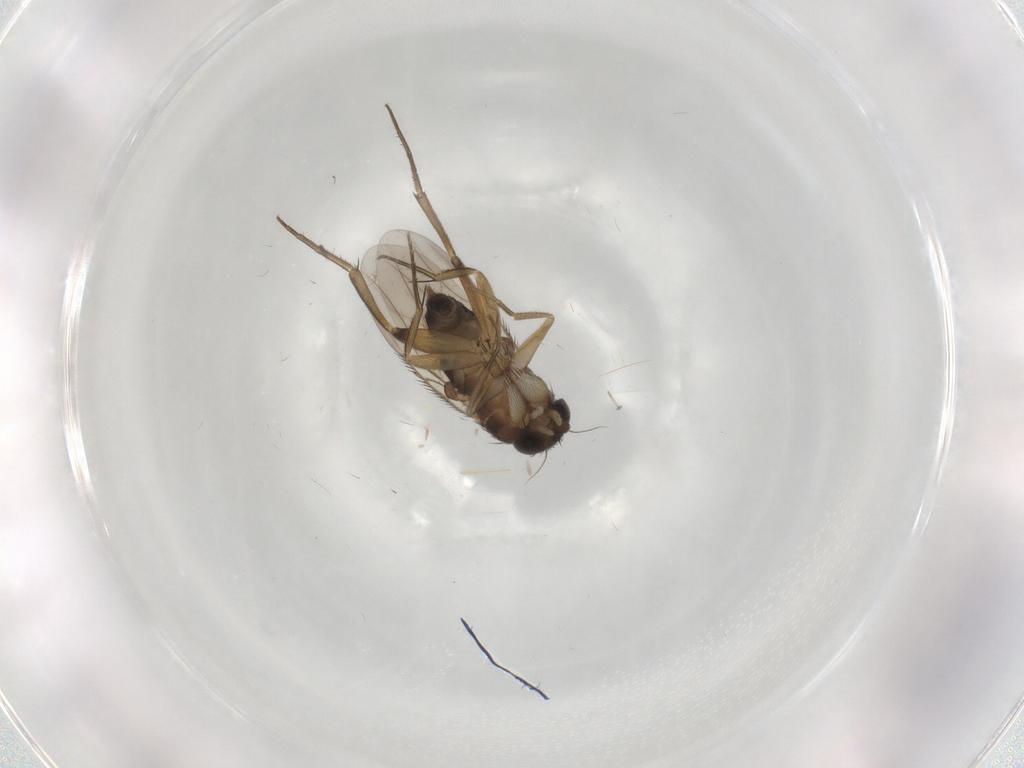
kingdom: Animalia
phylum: Arthropoda
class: Insecta
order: Diptera
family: Phoridae
